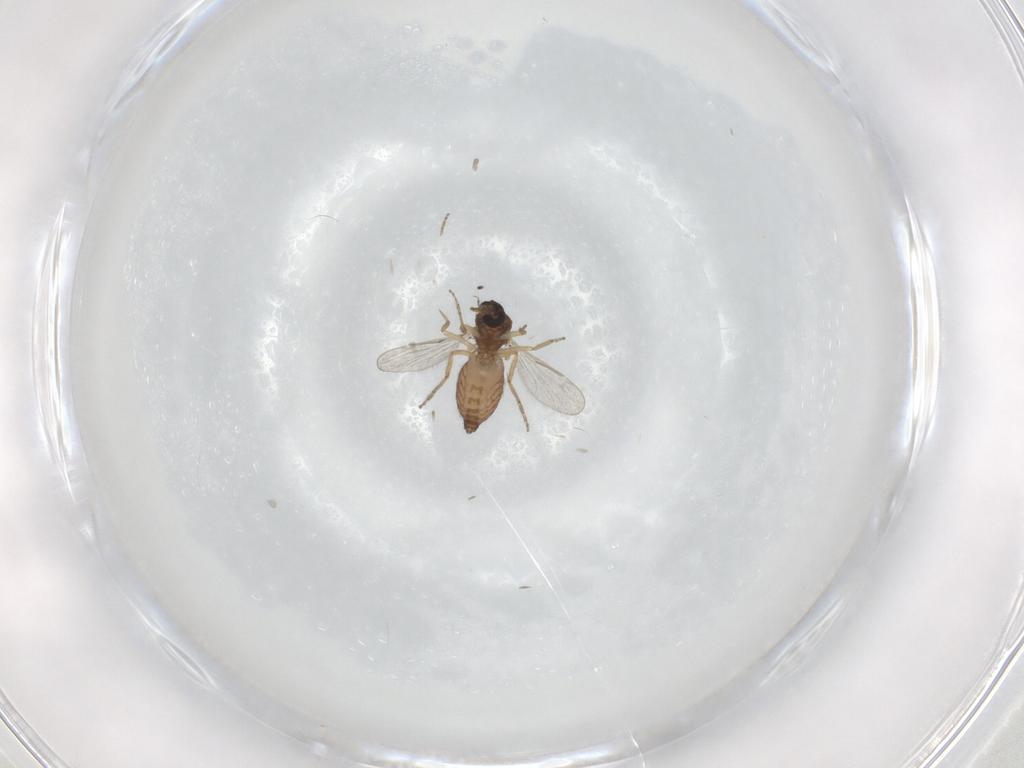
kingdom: Animalia
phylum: Arthropoda
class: Insecta
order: Diptera
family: Ceratopogonidae
